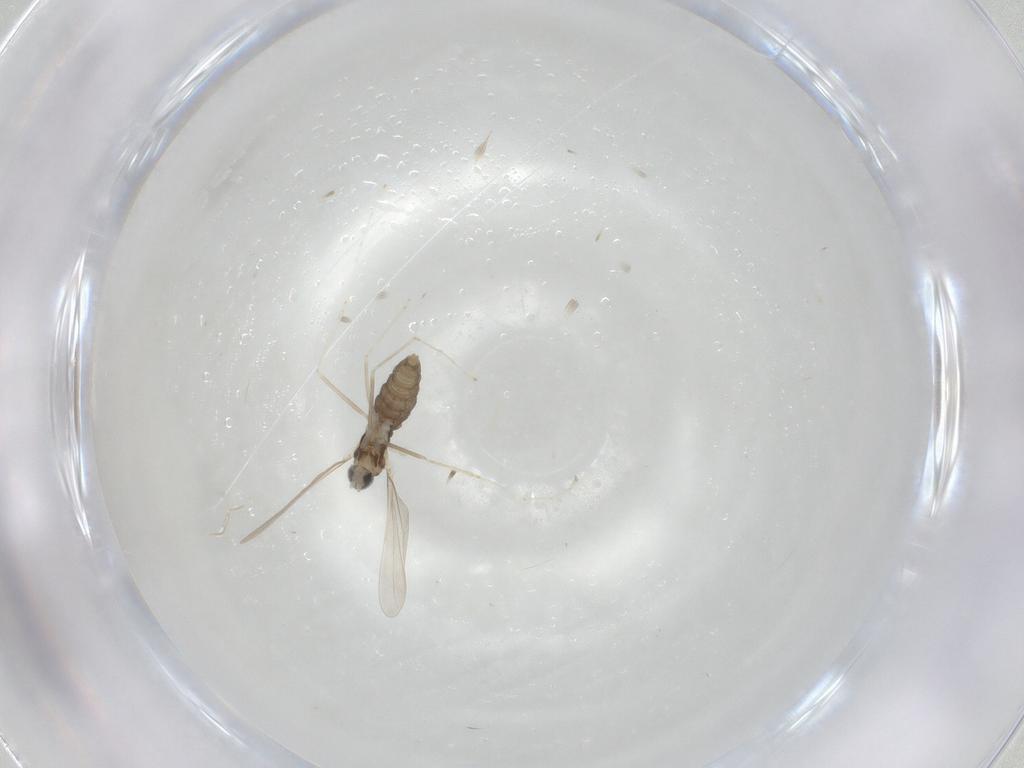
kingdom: Animalia
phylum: Arthropoda
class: Insecta
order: Diptera
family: Cecidomyiidae
